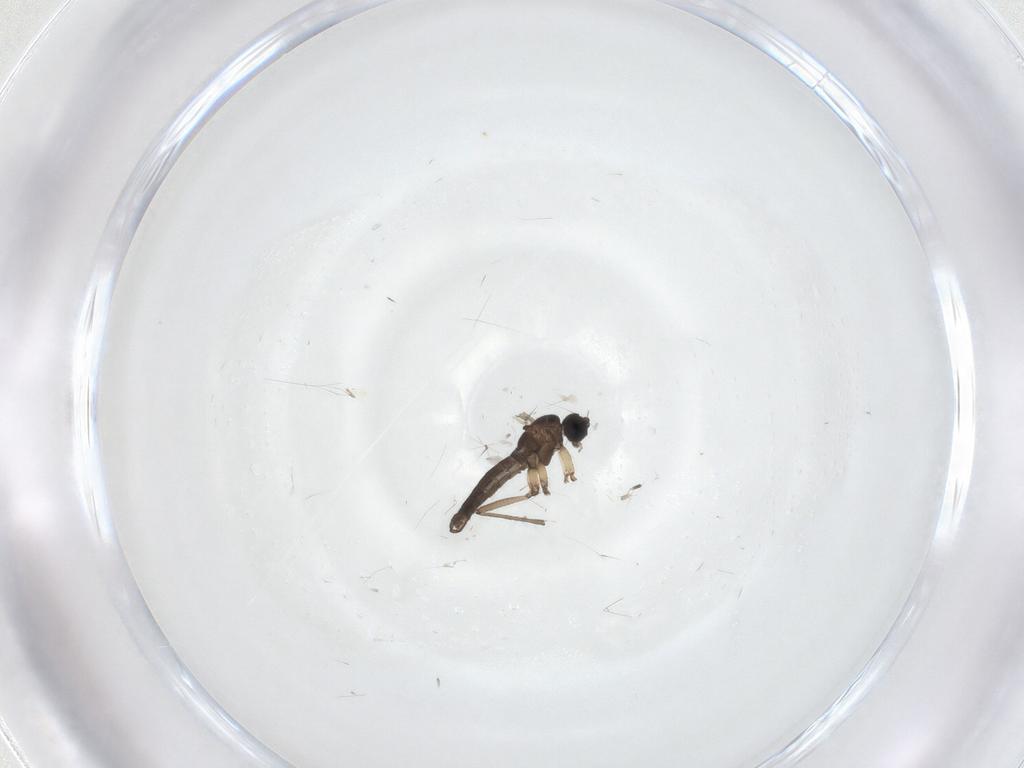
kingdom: Animalia
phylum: Arthropoda
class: Insecta
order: Diptera
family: Sciaridae
